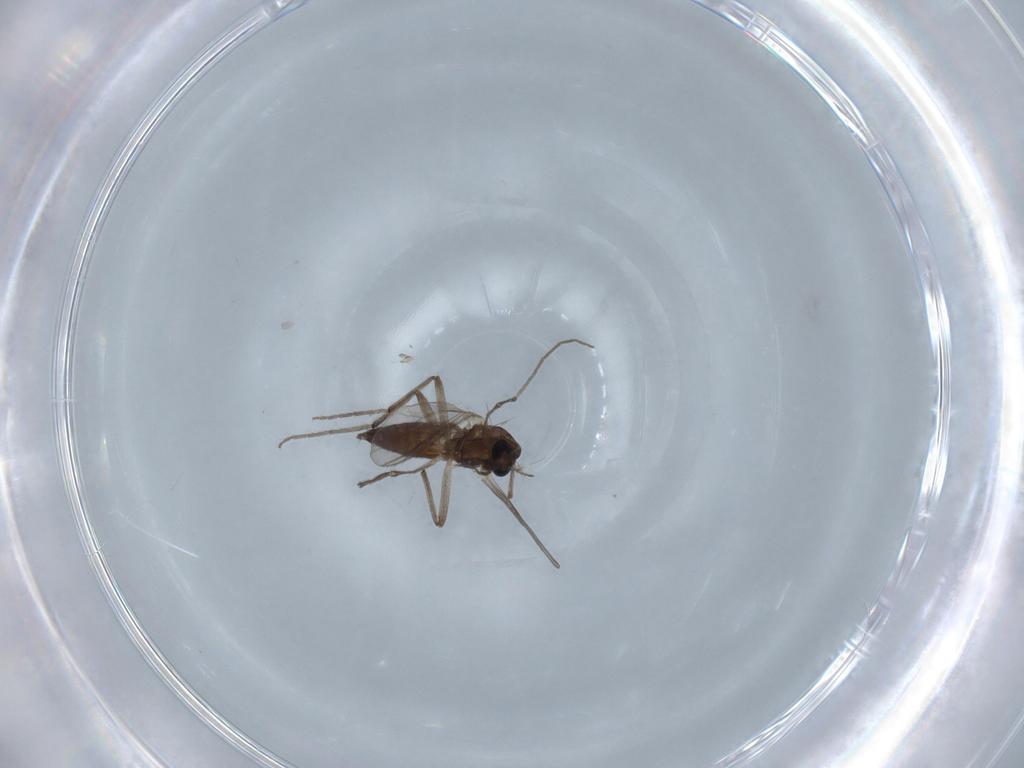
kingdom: Animalia
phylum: Arthropoda
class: Insecta
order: Diptera
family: Chironomidae
